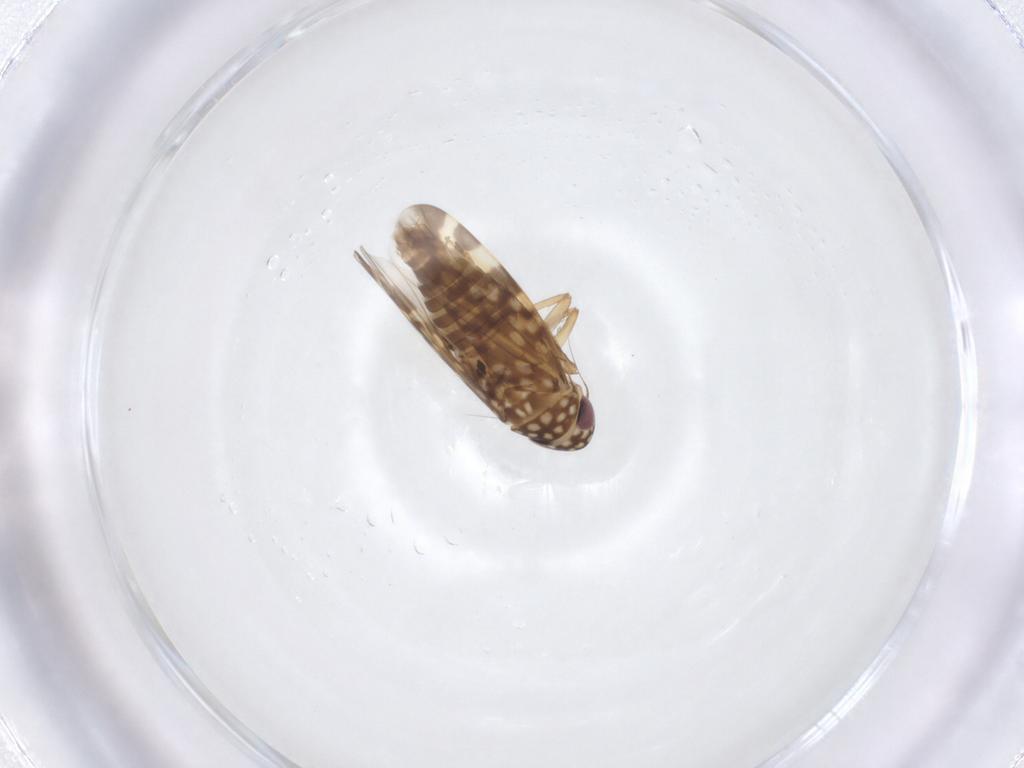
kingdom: Animalia
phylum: Arthropoda
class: Insecta
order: Hemiptera
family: Cicadellidae
